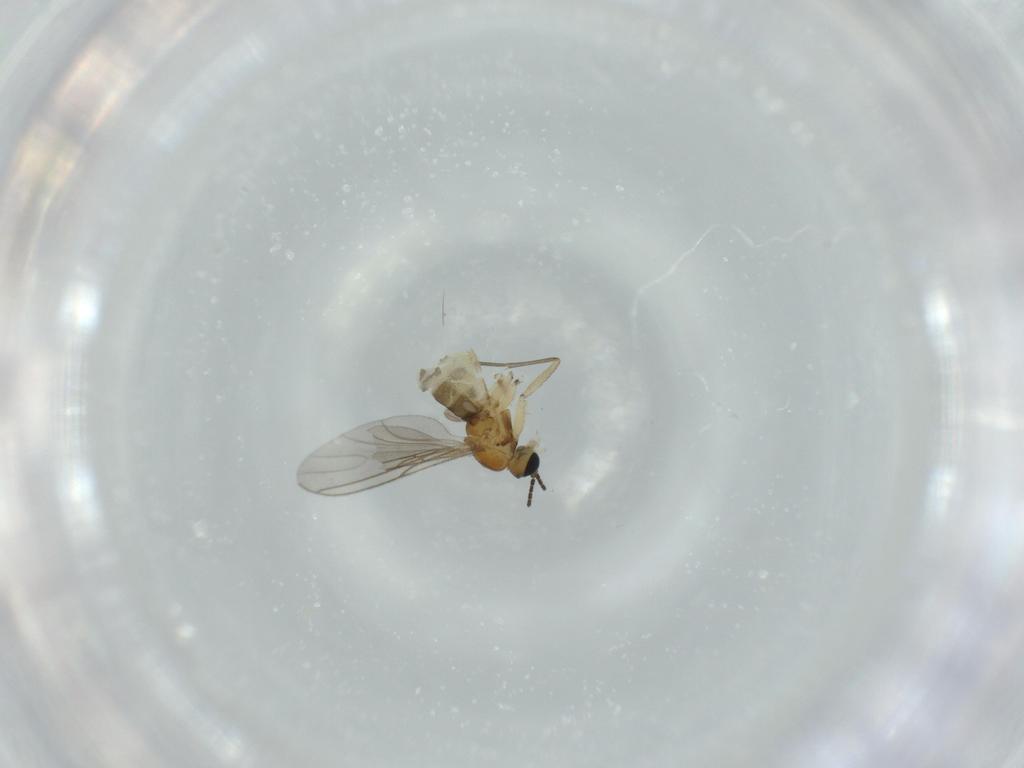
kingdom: Animalia
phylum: Arthropoda
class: Insecta
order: Diptera
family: Sciaridae
